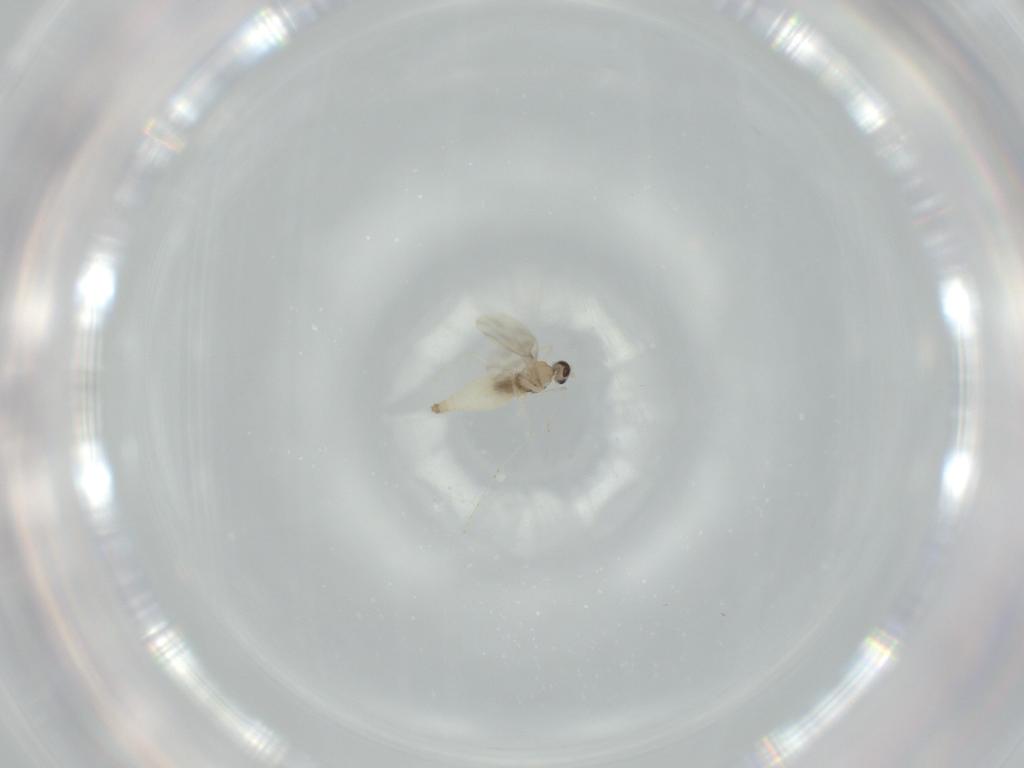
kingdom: Animalia
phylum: Arthropoda
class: Insecta
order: Diptera
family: Cecidomyiidae
